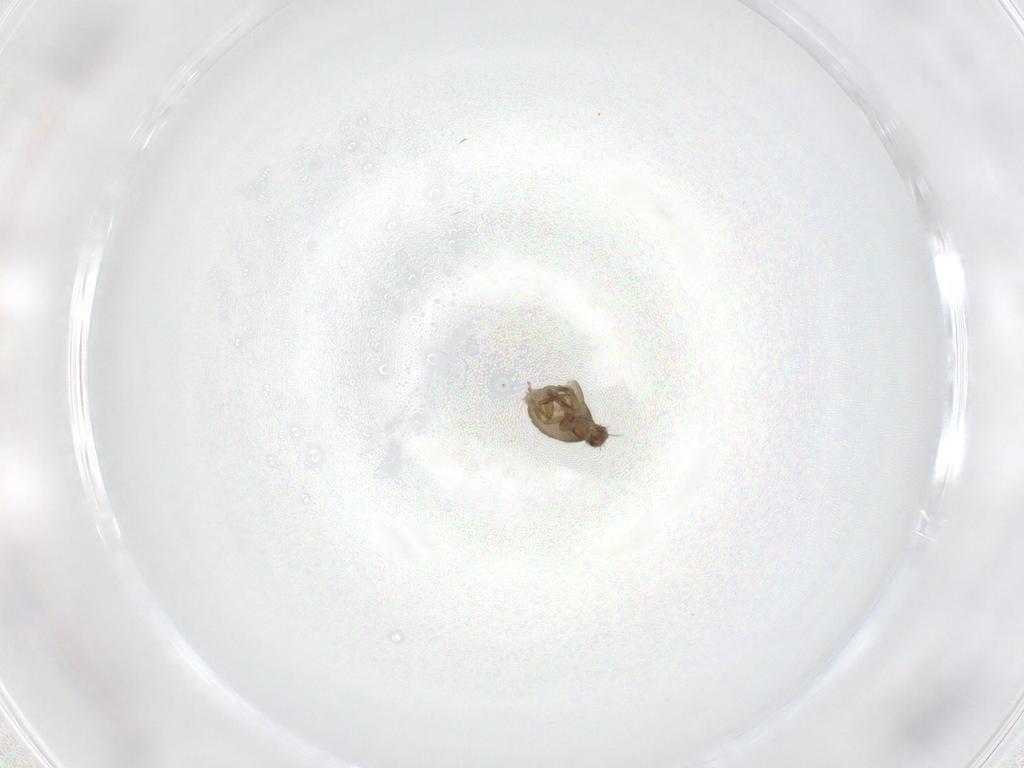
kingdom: Animalia
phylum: Arthropoda
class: Insecta
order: Diptera
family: Phoridae
